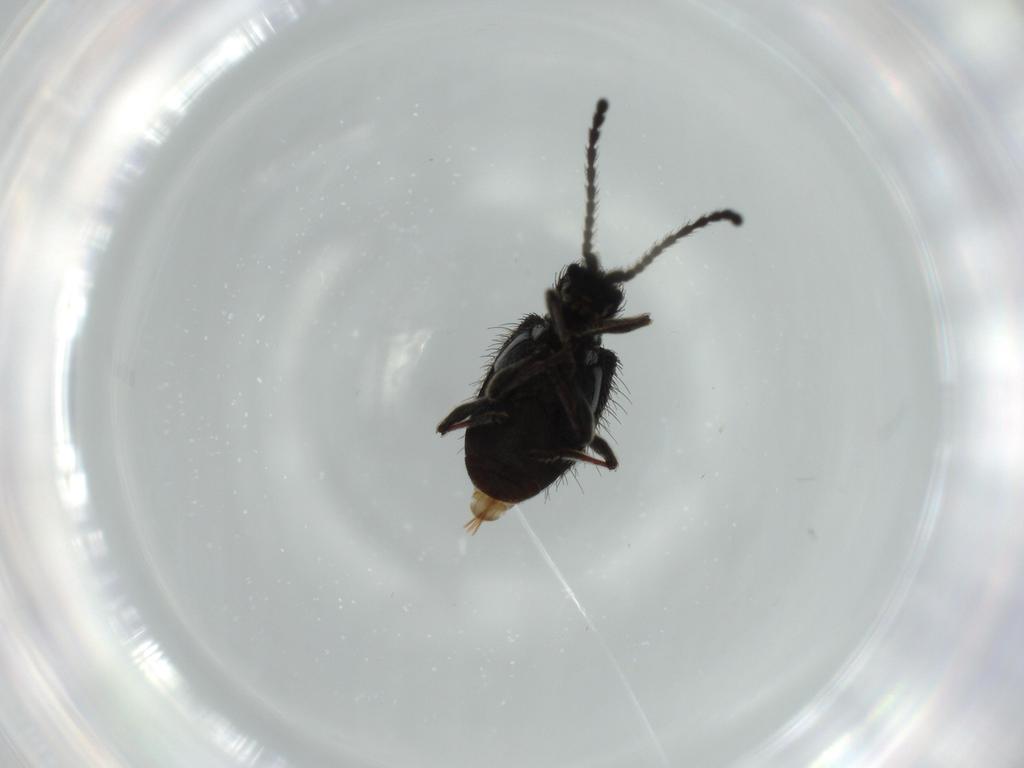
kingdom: Animalia
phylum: Arthropoda
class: Insecta
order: Coleoptera
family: Ptinidae
